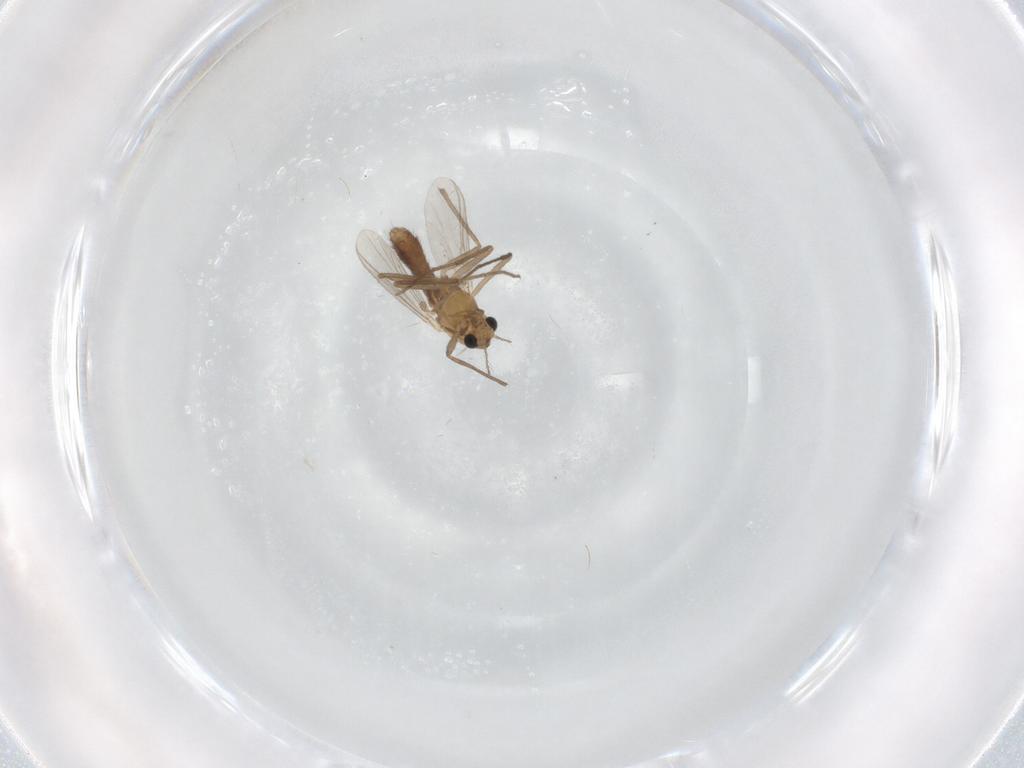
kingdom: Animalia
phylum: Arthropoda
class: Insecta
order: Diptera
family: Chironomidae
